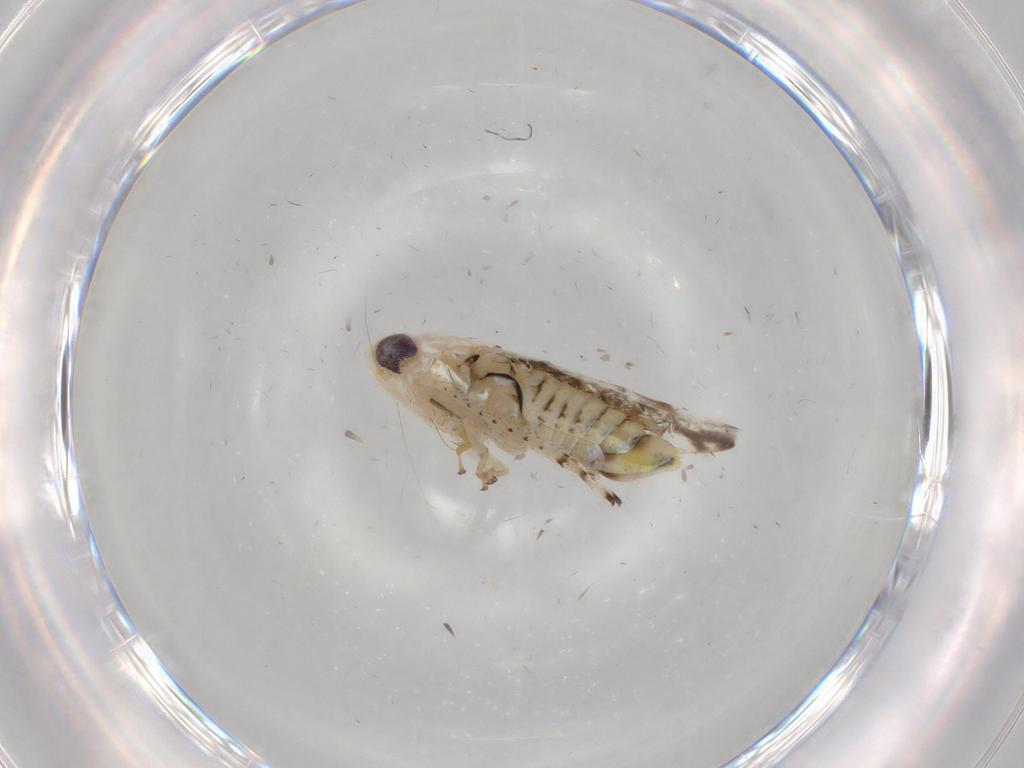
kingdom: Animalia
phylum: Arthropoda
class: Insecta
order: Hemiptera
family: Cicadellidae
